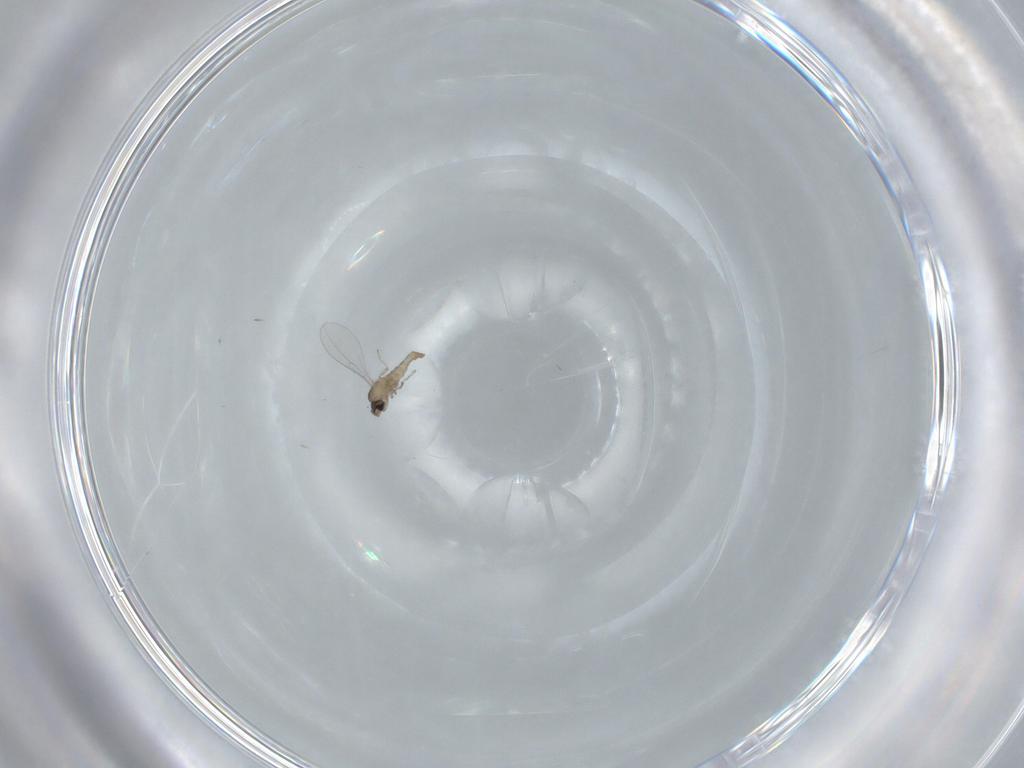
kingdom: Animalia
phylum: Arthropoda
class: Insecta
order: Diptera
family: Cecidomyiidae
